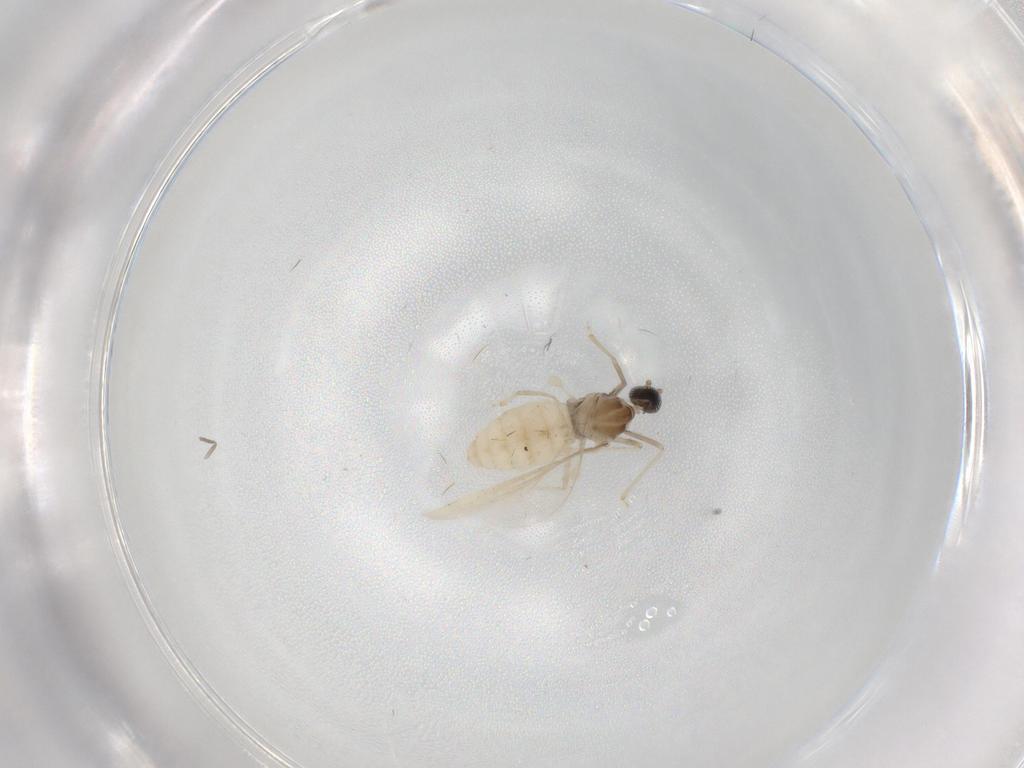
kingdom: Animalia
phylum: Arthropoda
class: Insecta
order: Diptera
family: Cecidomyiidae
